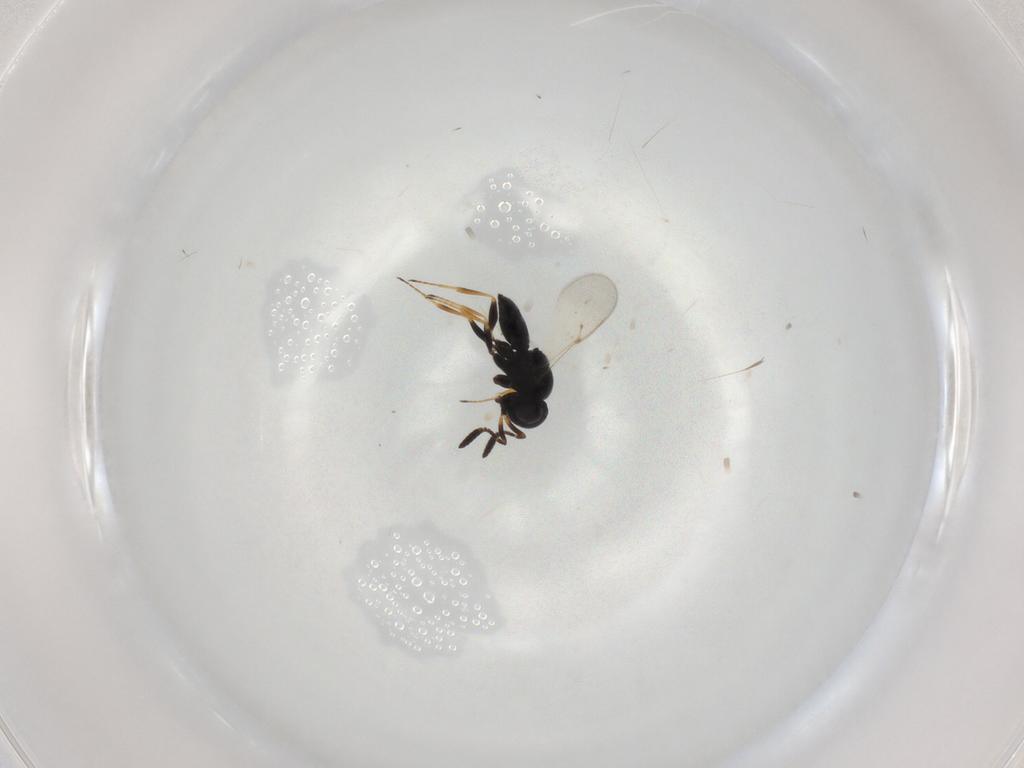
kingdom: Animalia
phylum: Arthropoda
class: Insecta
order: Coleoptera
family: Curculionidae
